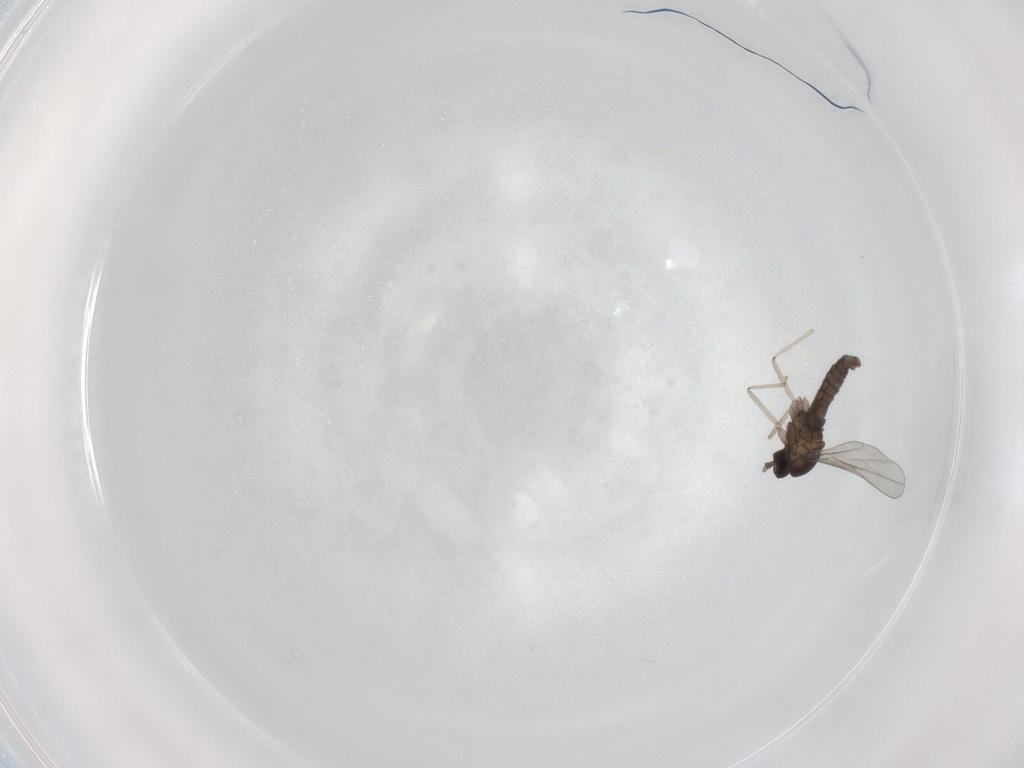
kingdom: Animalia
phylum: Arthropoda
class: Insecta
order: Diptera
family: Cecidomyiidae
